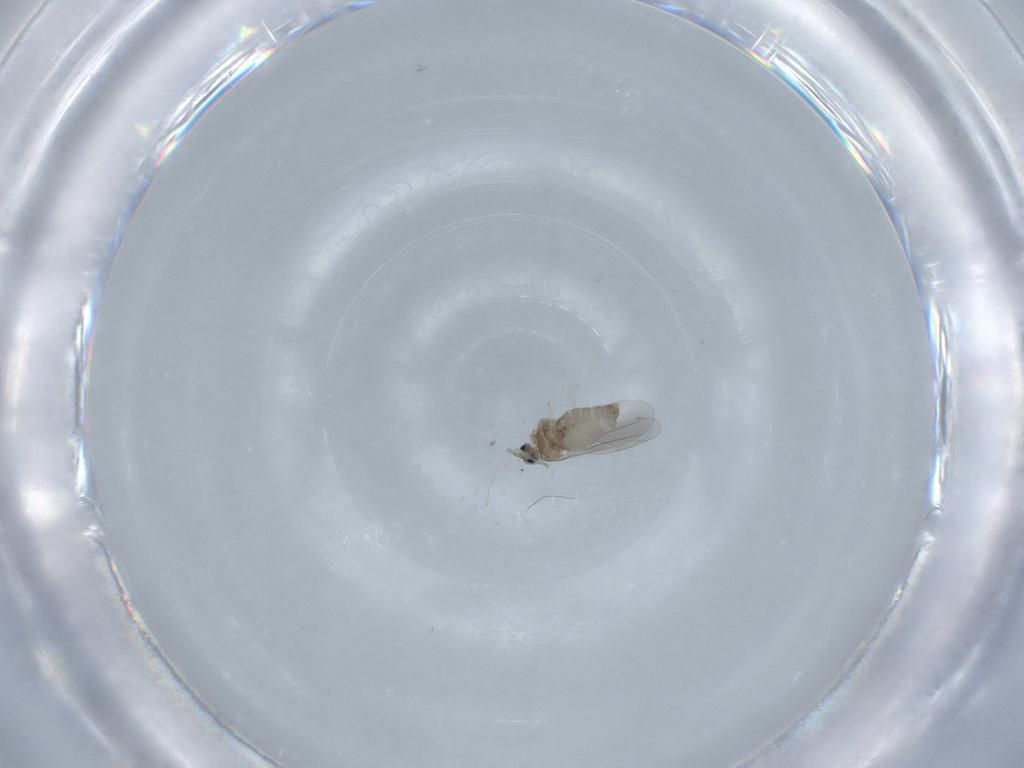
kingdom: Animalia
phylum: Arthropoda
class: Insecta
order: Diptera
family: Cecidomyiidae
